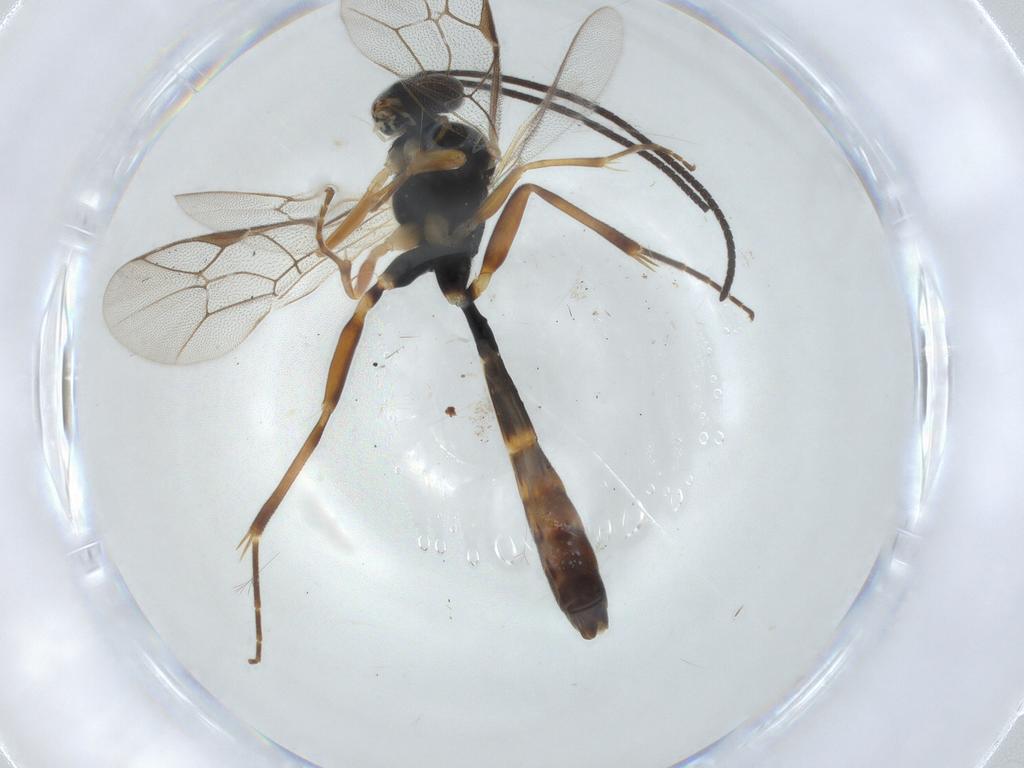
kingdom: Animalia
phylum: Arthropoda
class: Insecta
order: Hymenoptera
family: Ichneumonidae
